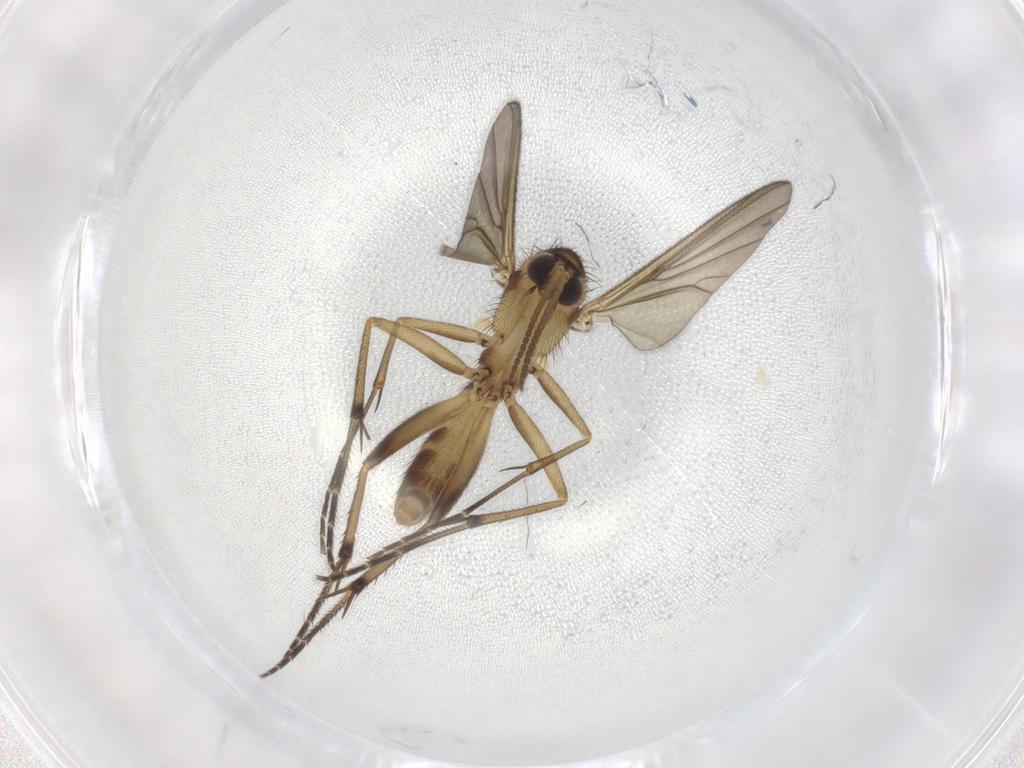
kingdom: Animalia
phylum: Arthropoda
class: Insecta
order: Diptera
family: Mycetophilidae
